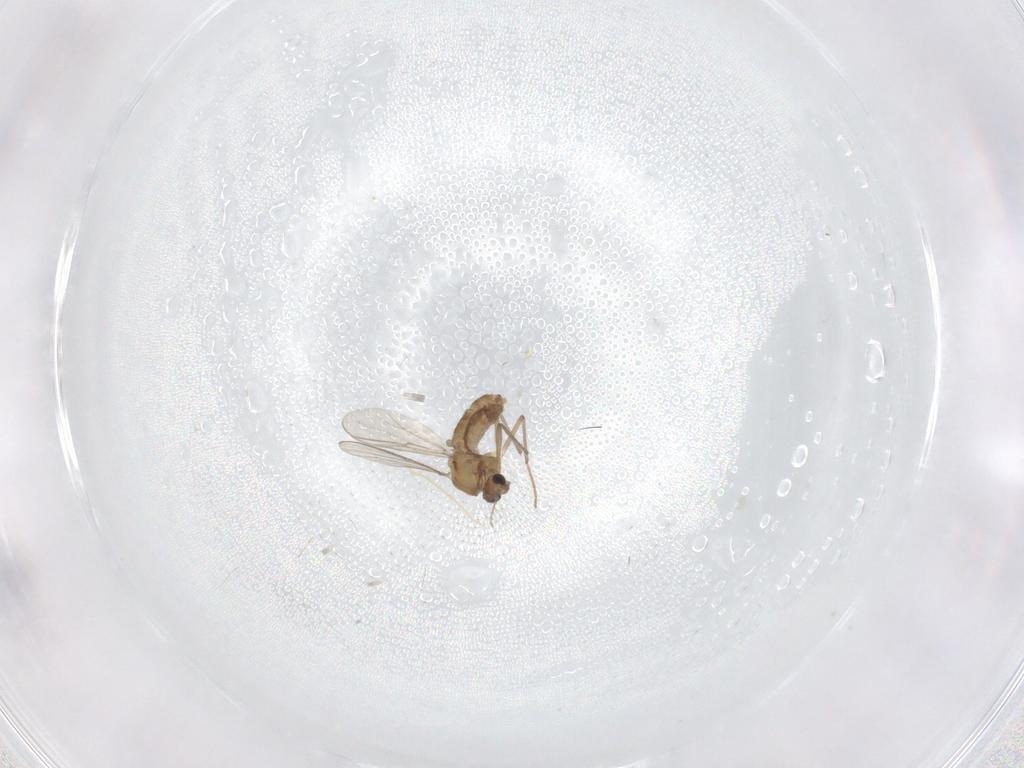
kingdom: Animalia
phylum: Arthropoda
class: Insecta
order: Diptera
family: Chironomidae
